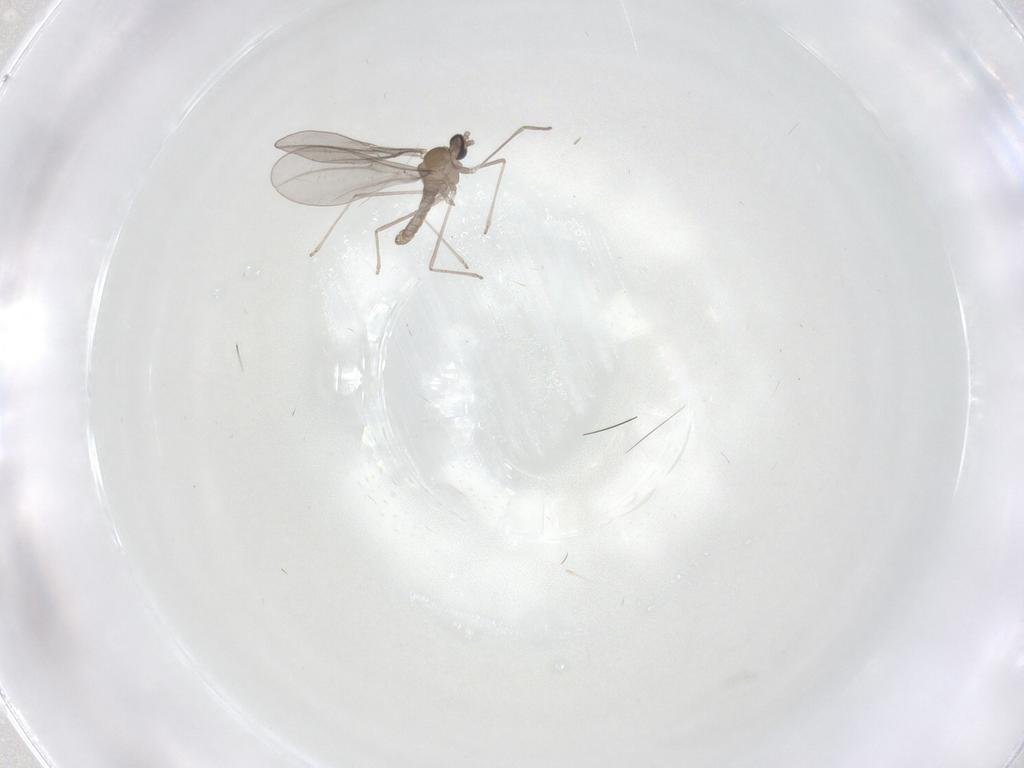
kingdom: Animalia
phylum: Arthropoda
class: Insecta
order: Diptera
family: Cecidomyiidae
